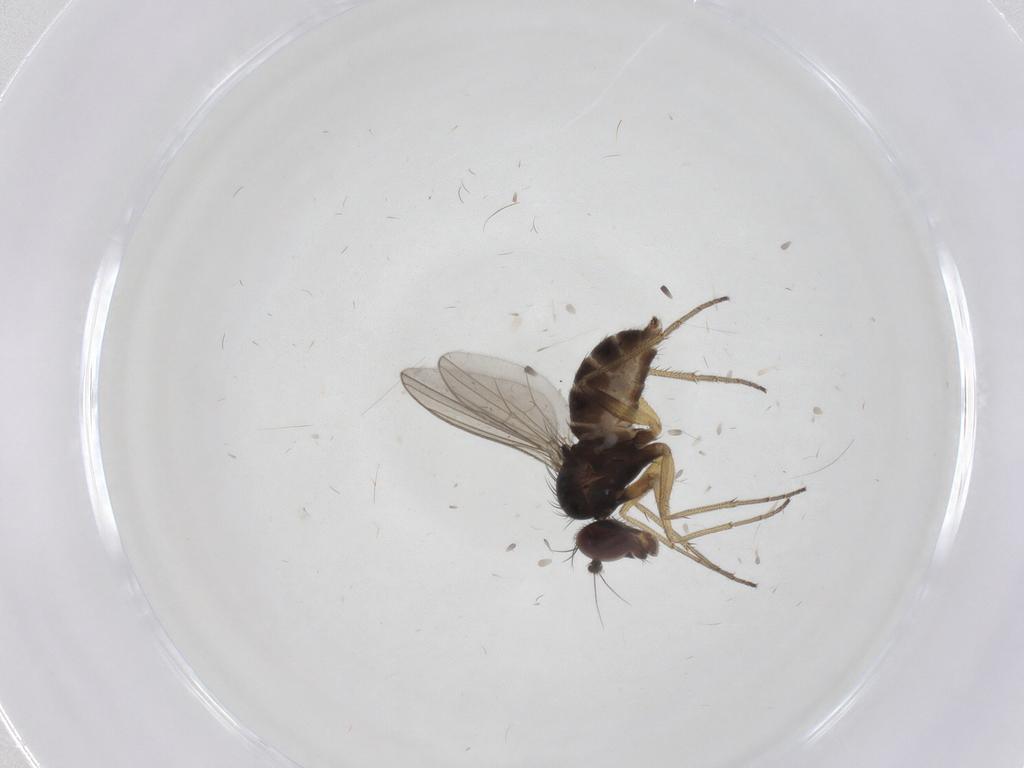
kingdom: Animalia
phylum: Arthropoda
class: Insecta
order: Diptera
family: Dolichopodidae
